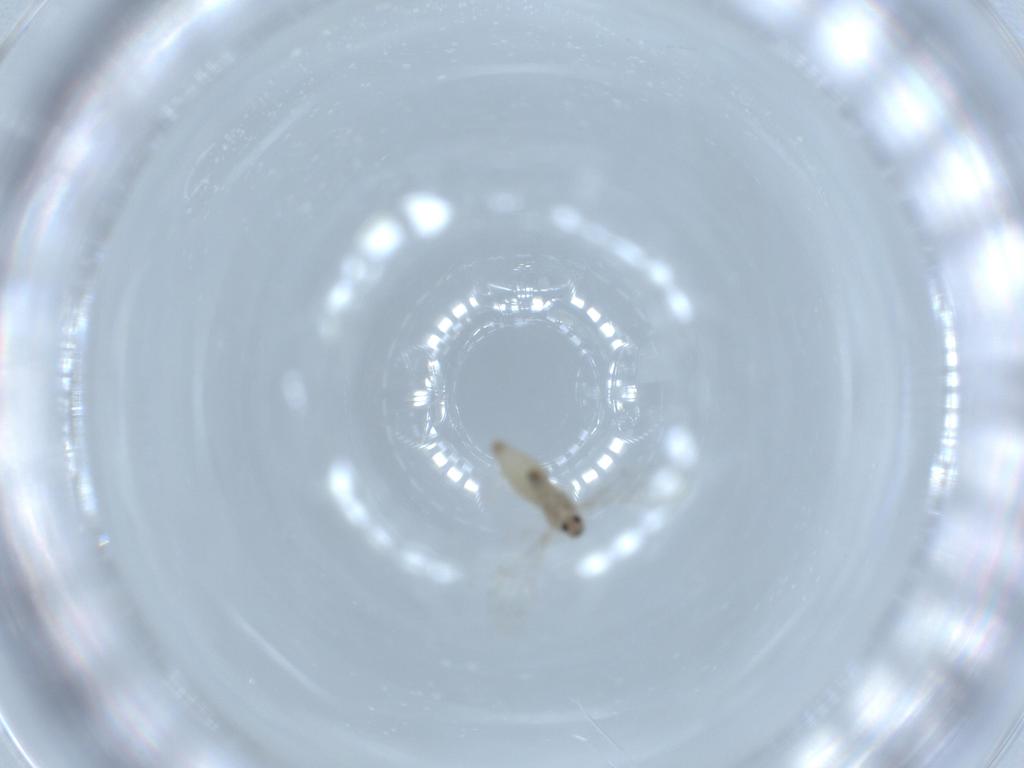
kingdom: Animalia
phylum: Arthropoda
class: Insecta
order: Diptera
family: Cecidomyiidae
